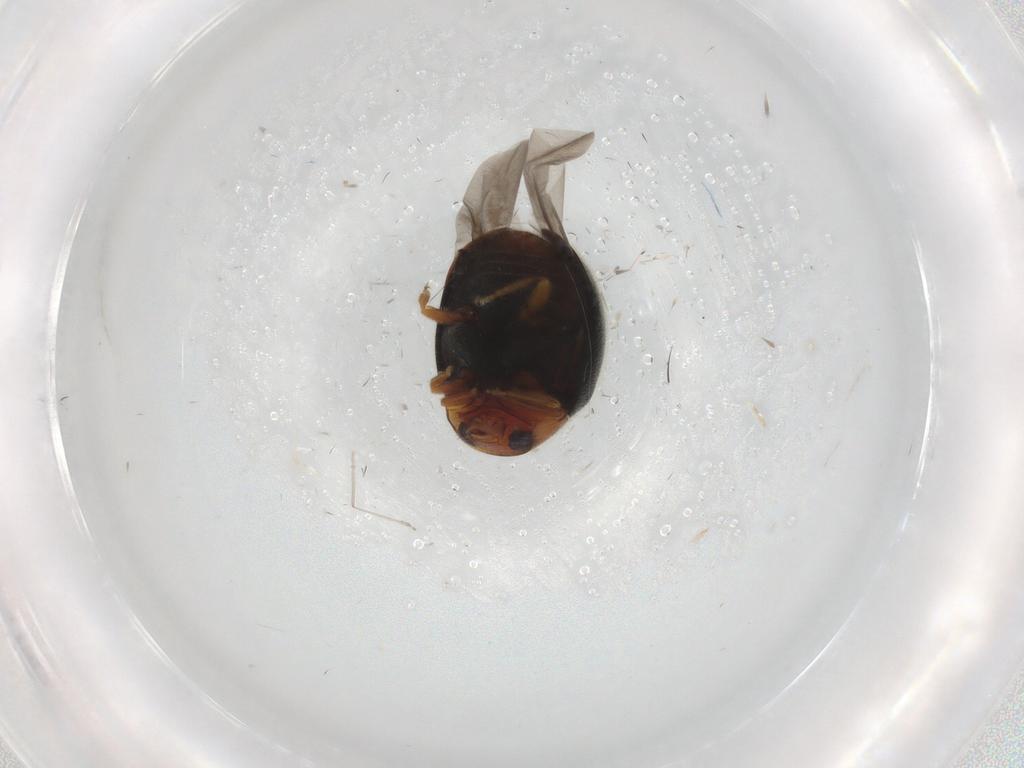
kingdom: Animalia
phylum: Arthropoda
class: Insecta
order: Coleoptera
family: Coccinellidae
